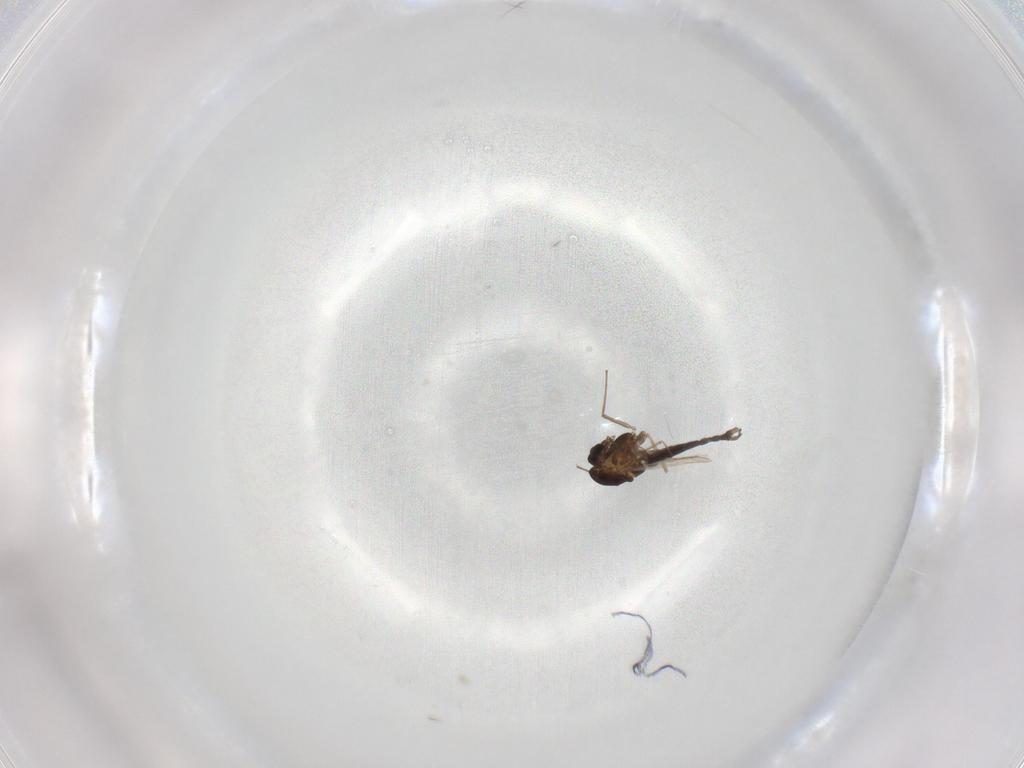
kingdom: Animalia
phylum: Arthropoda
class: Insecta
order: Diptera
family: Chironomidae
